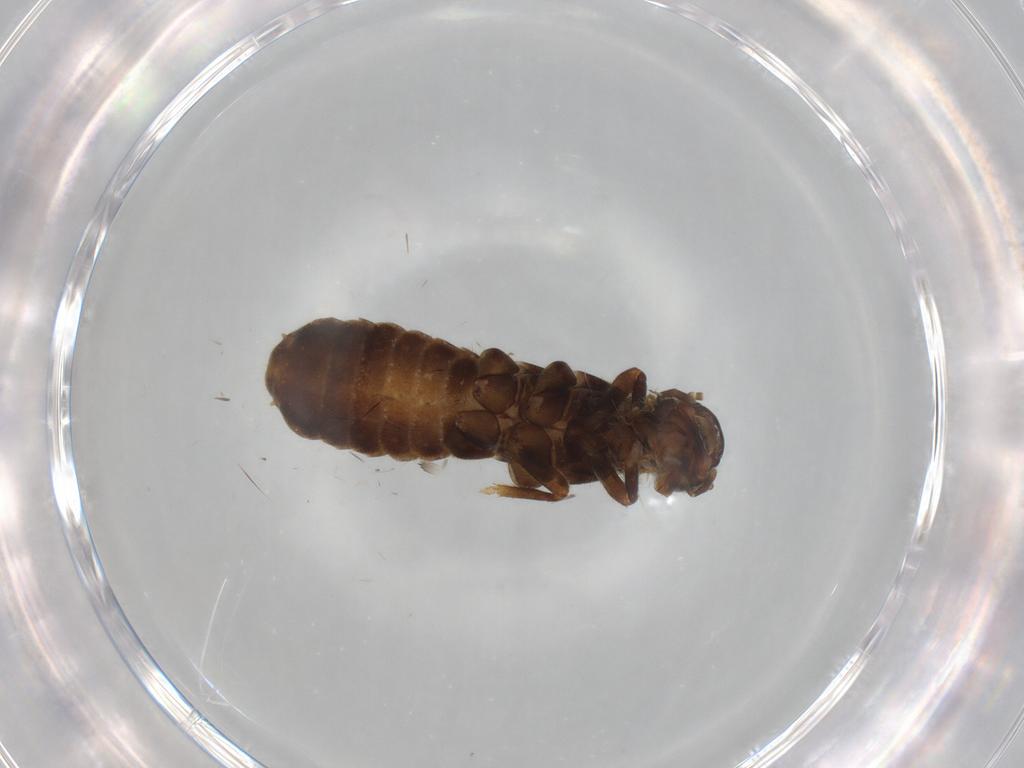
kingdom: Animalia
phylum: Arthropoda
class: Insecta
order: Blattodea
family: Termitidae
